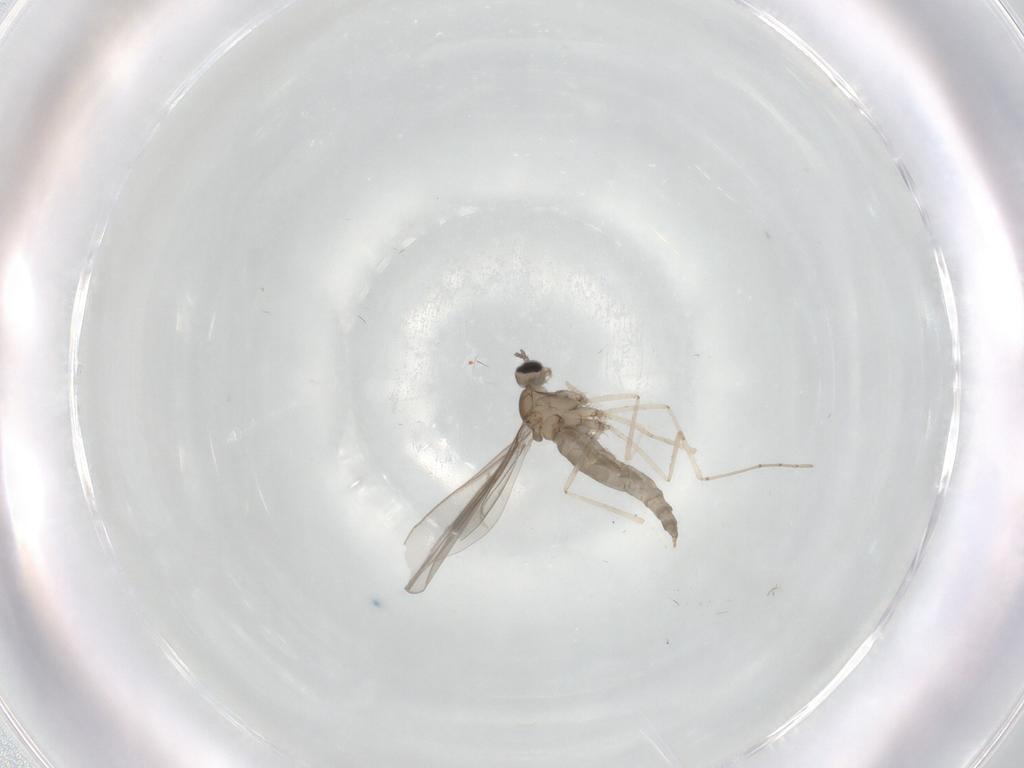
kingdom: Animalia
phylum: Arthropoda
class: Insecta
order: Diptera
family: Cecidomyiidae
